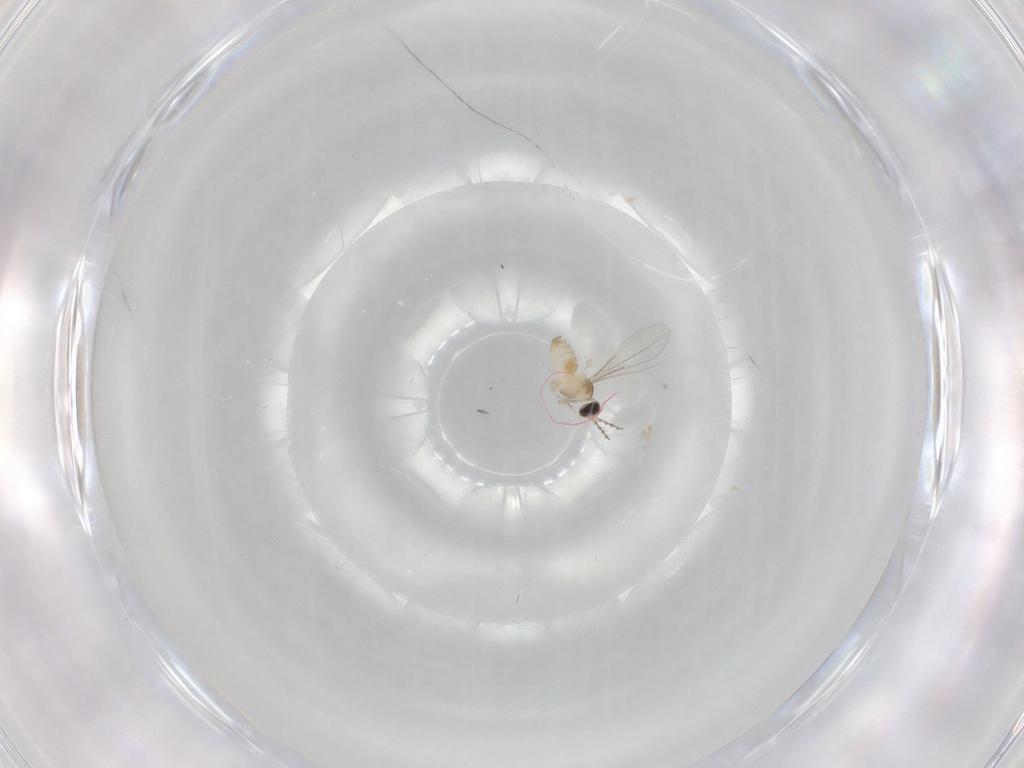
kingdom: Animalia
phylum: Arthropoda
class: Insecta
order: Diptera
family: Cecidomyiidae
